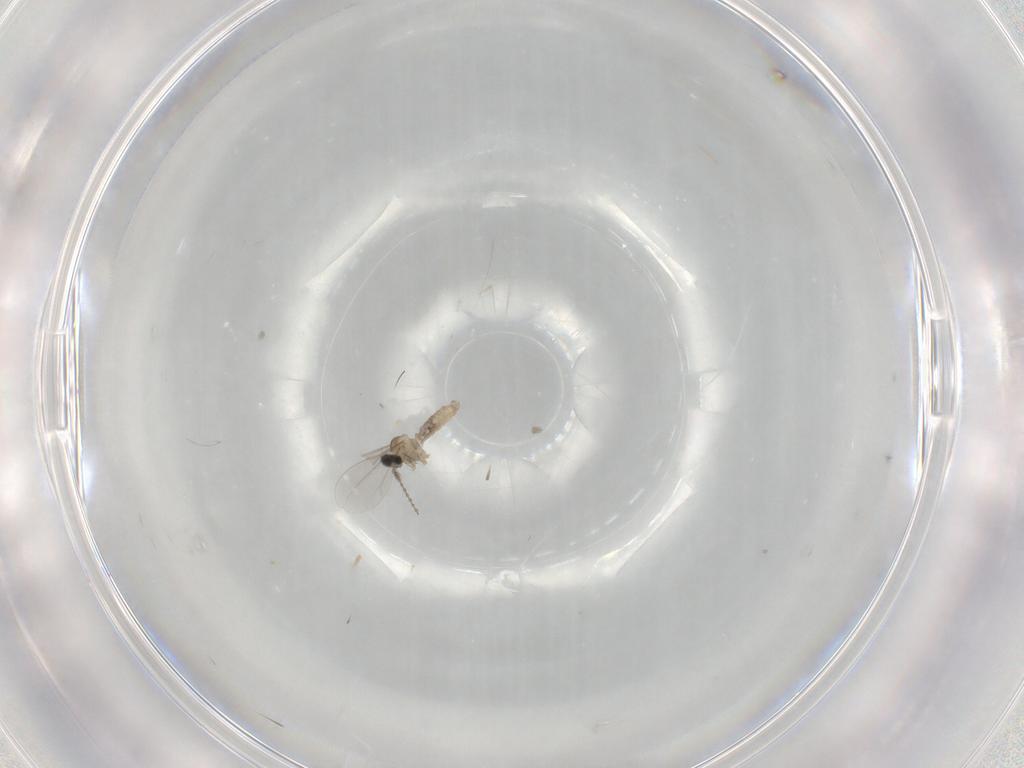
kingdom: Animalia
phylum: Arthropoda
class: Insecta
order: Diptera
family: Cecidomyiidae
